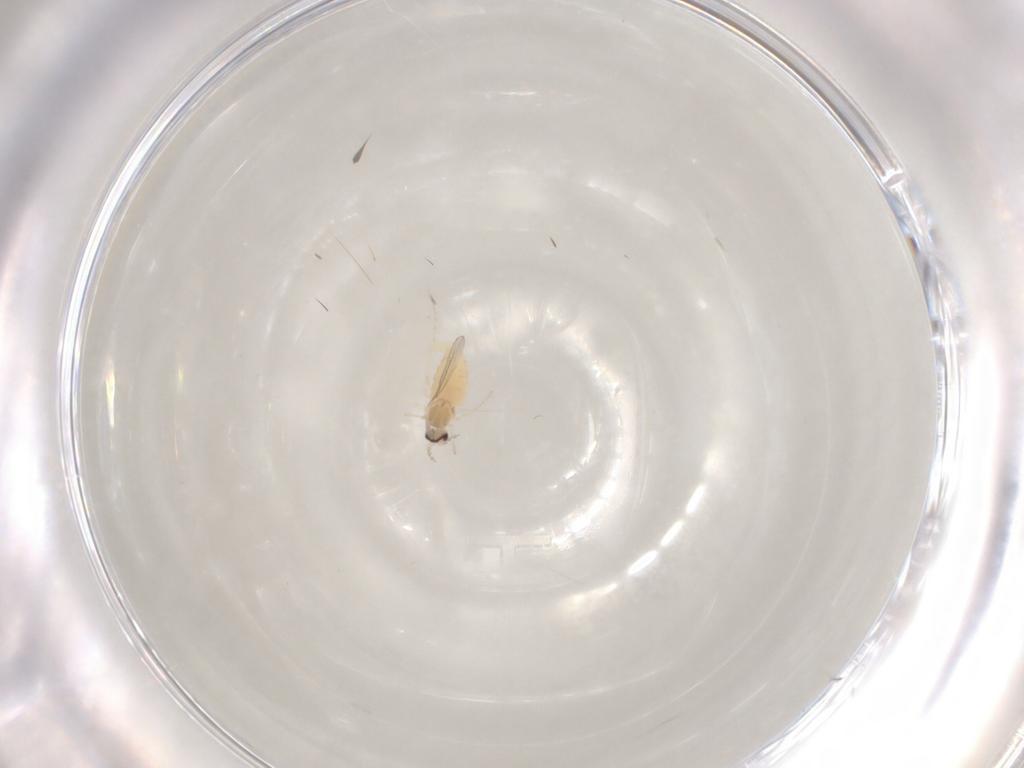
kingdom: Animalia
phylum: Arthropoda
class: Insecta
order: Diptera
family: Cecidomyiidae
